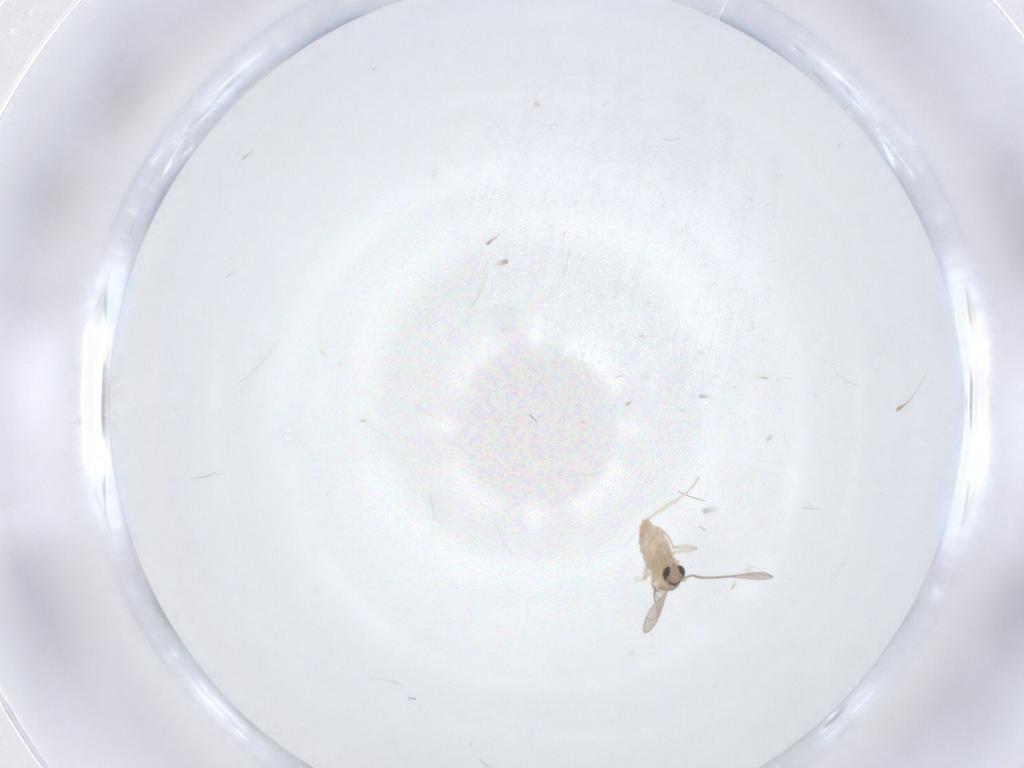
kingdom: Animalia
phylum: Arthropoda
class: Insecta
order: Diptera
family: Cecidomyiidae
